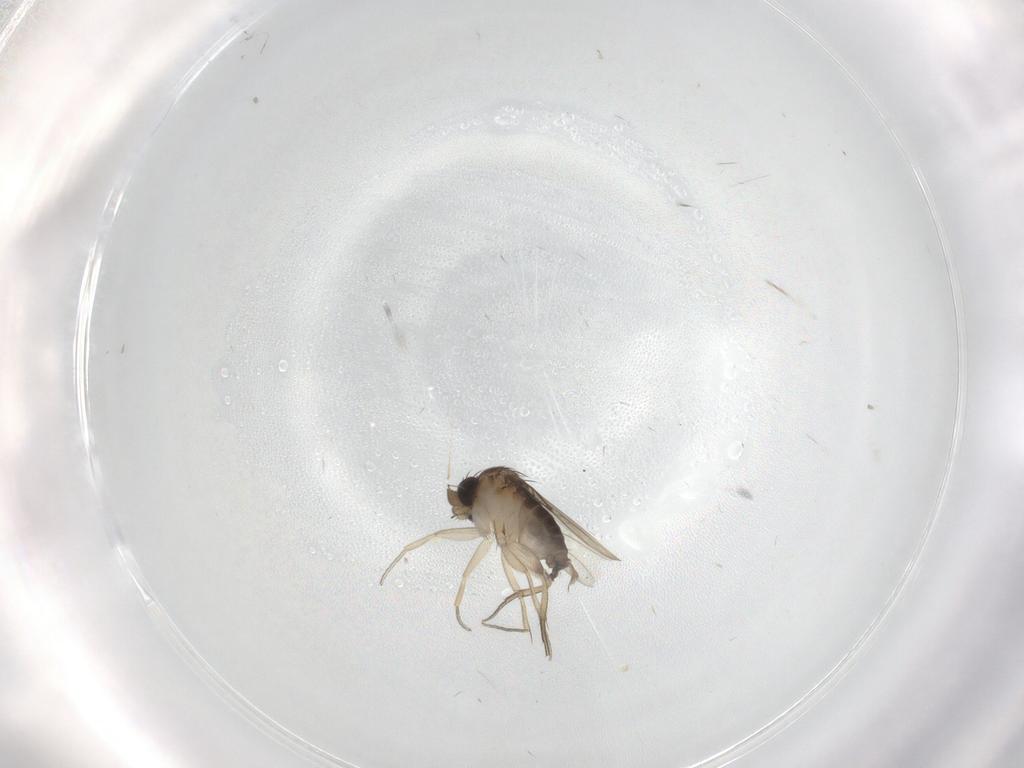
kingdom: Animalia
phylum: Arthropoda
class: Insecta
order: Diptera
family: Phoridae
